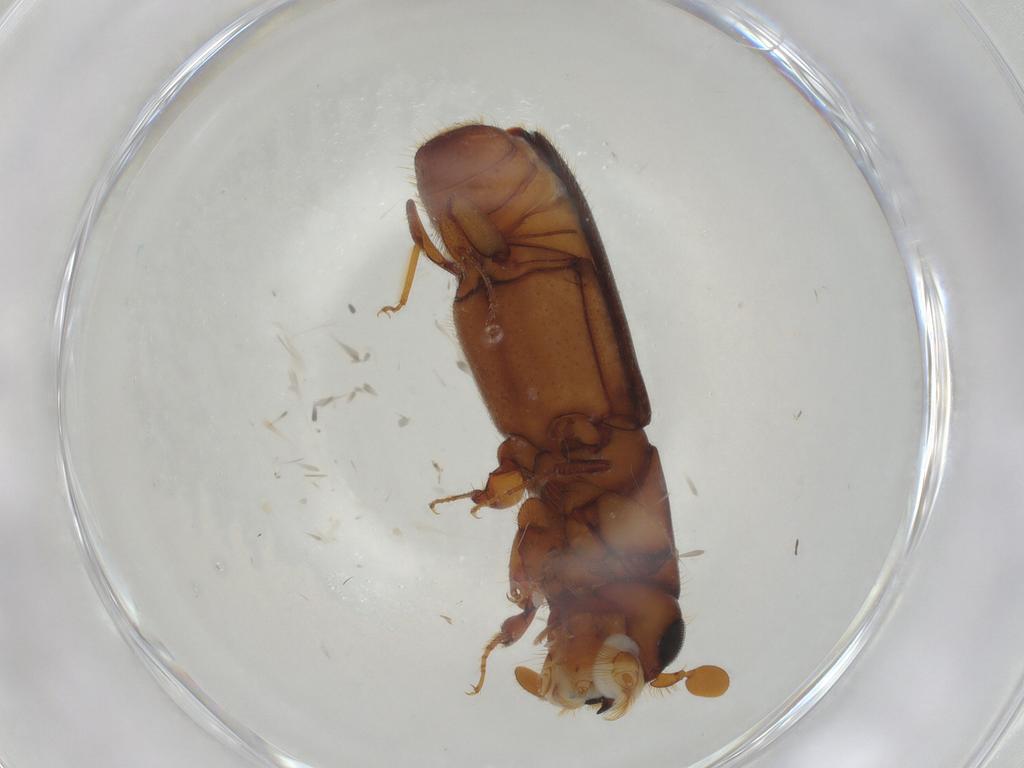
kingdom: Animalia
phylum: Arthropoda
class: Insecta
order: Coleoptera
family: Curculionidae
